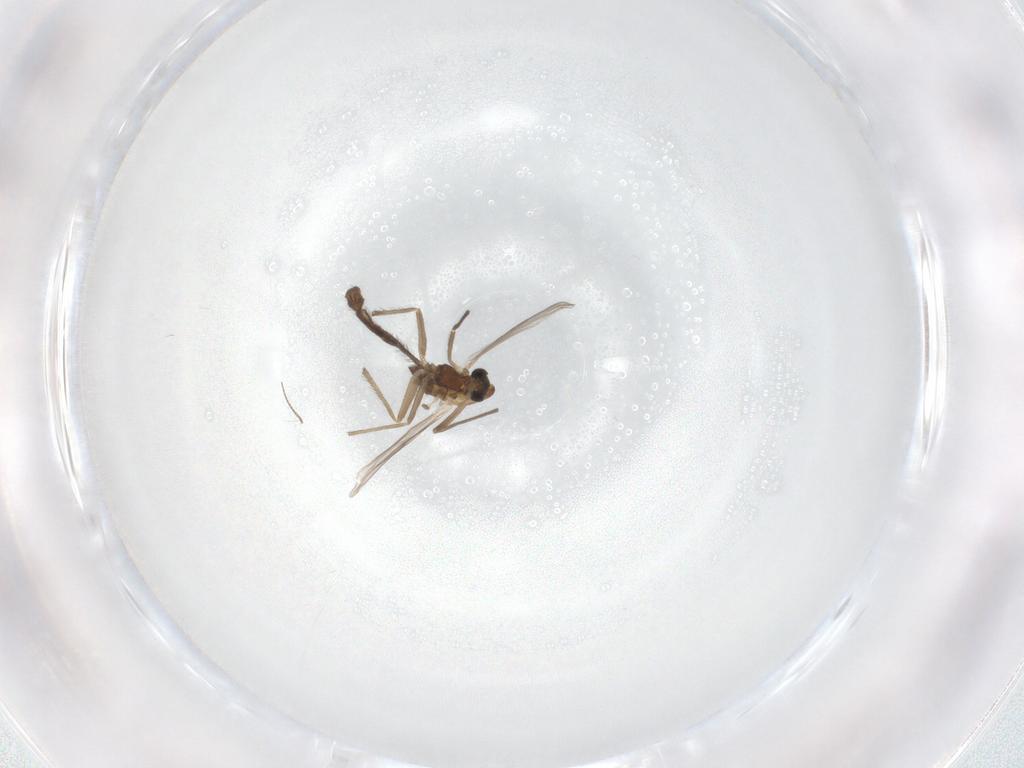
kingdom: Animalia
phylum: Arthropoda
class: Insecta
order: Diptera
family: Chironomidae
